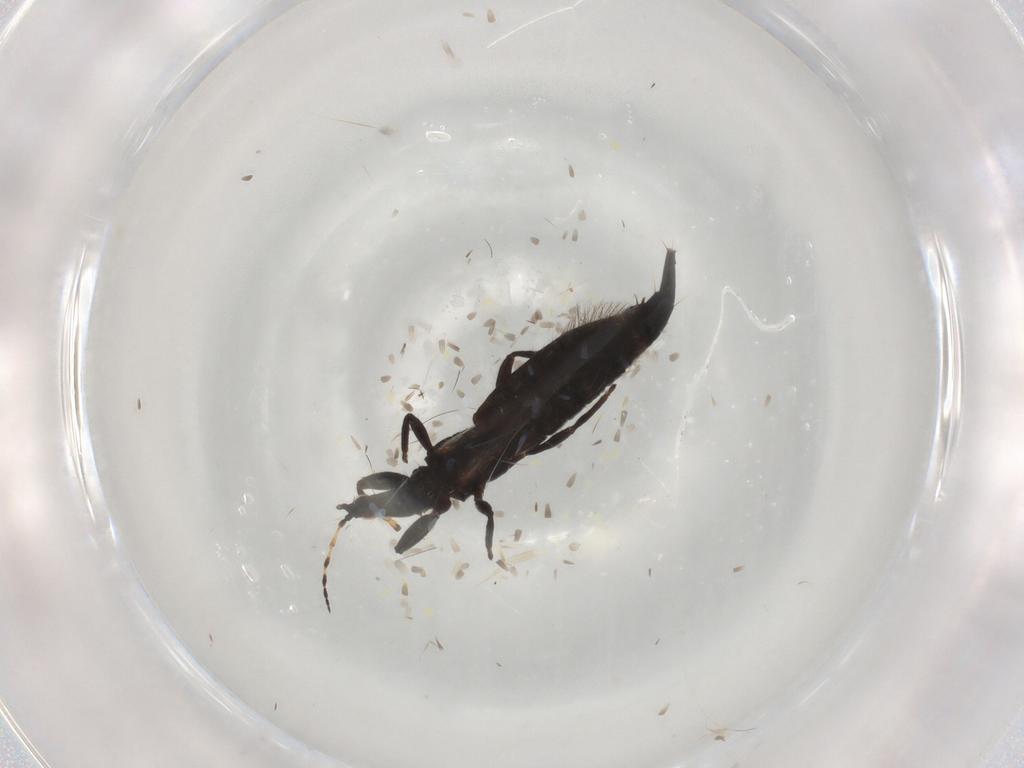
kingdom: Animalia
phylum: Arthropoda
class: Insecta
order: Thysanoptera
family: Phlaeothripidae
